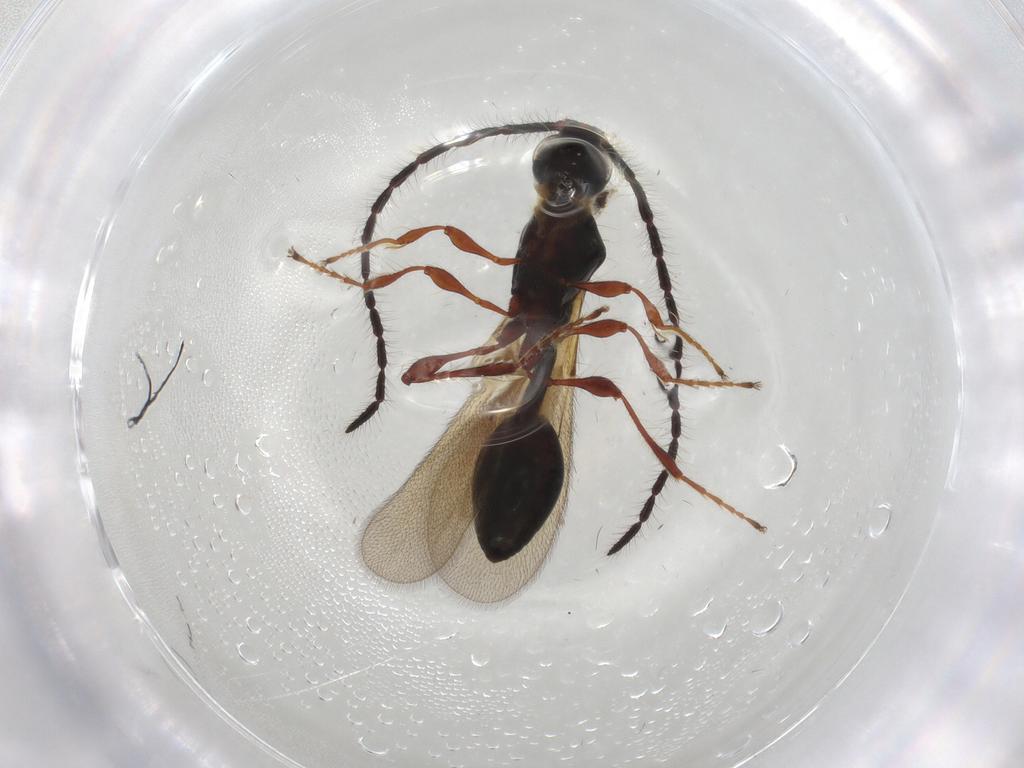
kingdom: Animalia
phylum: Arthropoda
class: Insecta
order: Hymenoptera
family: Diapriidae
